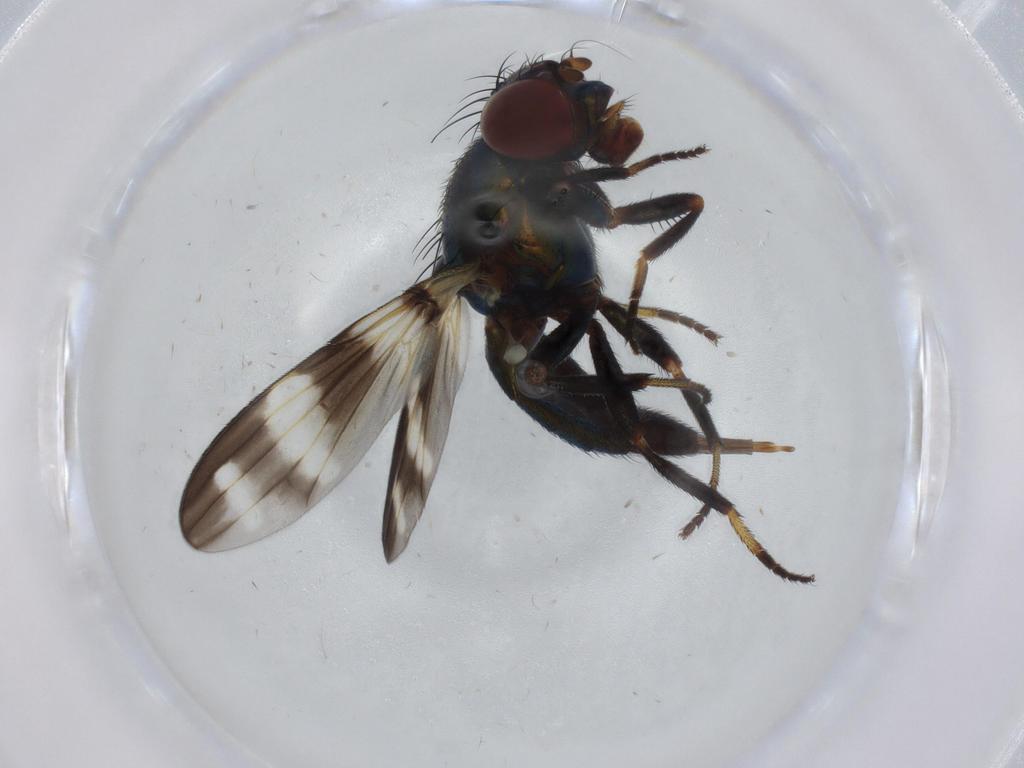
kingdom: Animalia
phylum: Arthropoda
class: Insecta
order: Diptera
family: Ulidiidae
